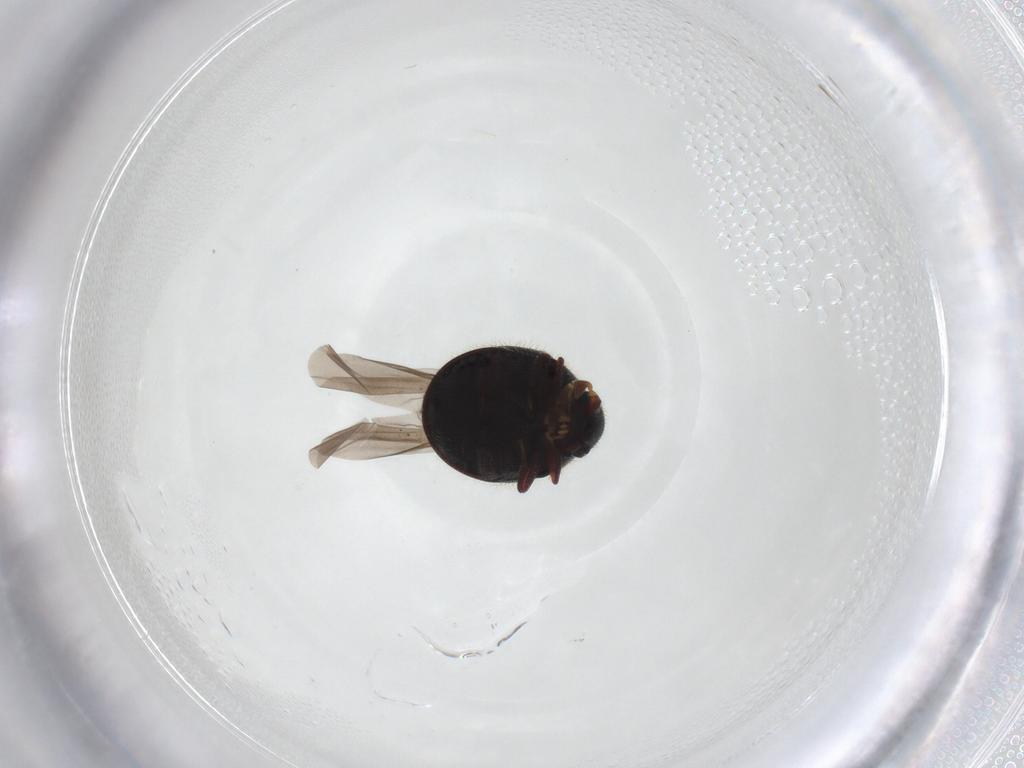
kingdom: Animalia
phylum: Arthropoda
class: Insecta
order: Coleoptera
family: Ptinidae
